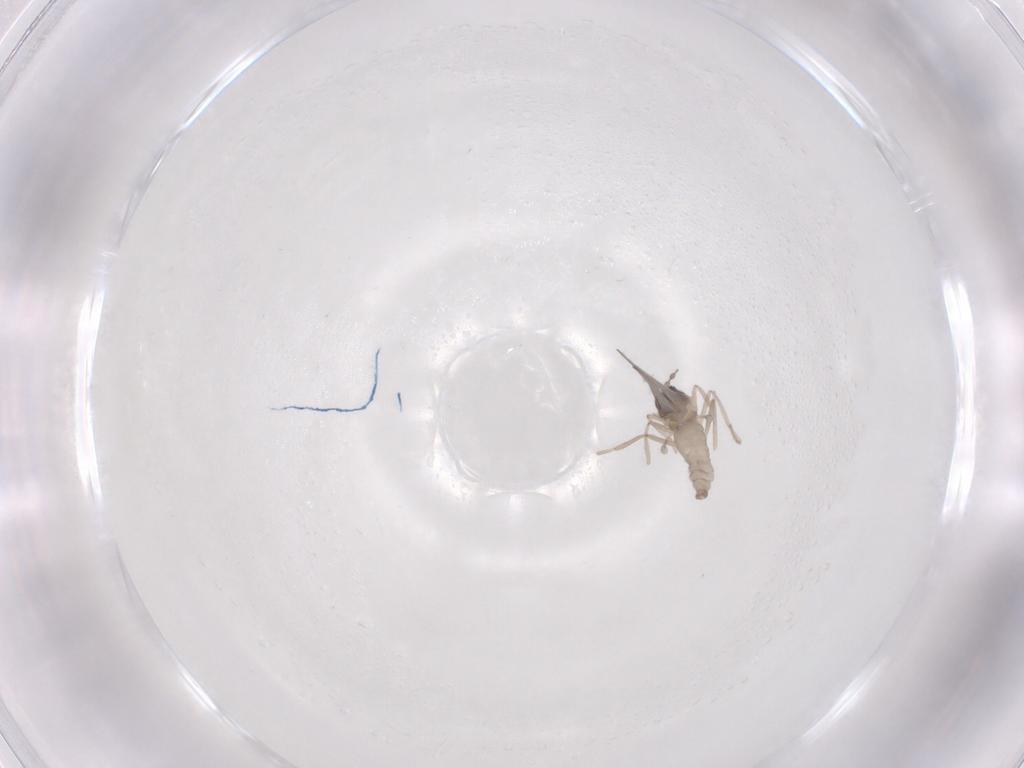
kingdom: Animalia
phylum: Arthropoda
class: Insecta
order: Diptera
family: Cecidomyiidae
